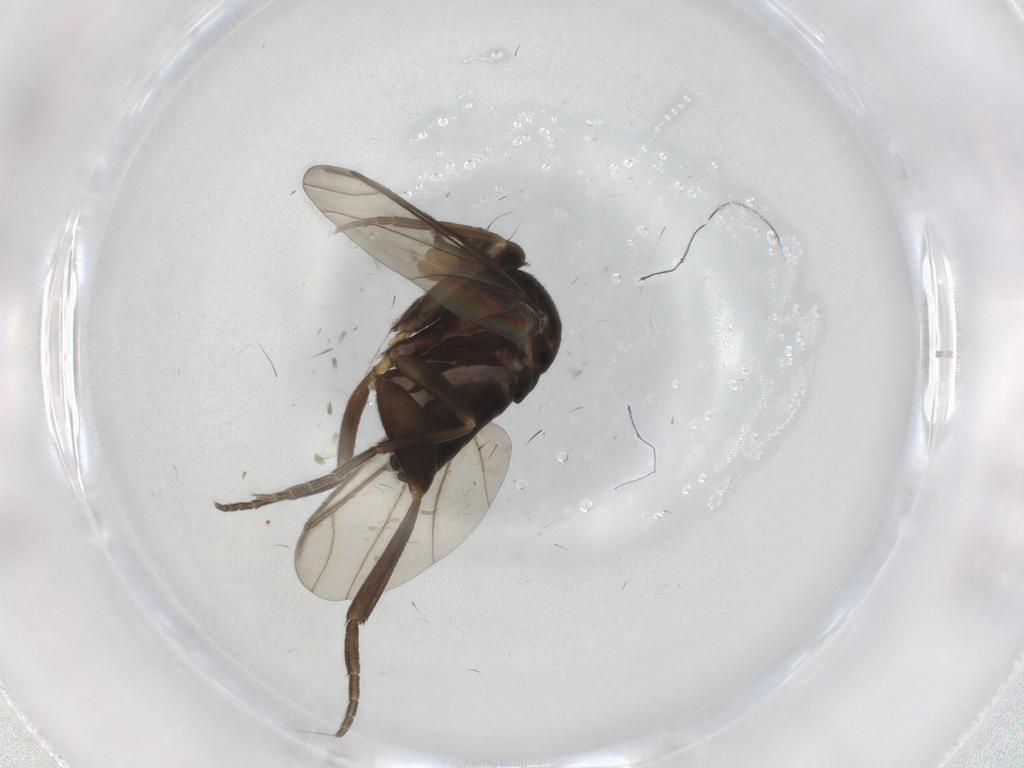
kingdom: Animalia
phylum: Arthropoda
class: Insecta
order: Diptera
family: Phoridae
